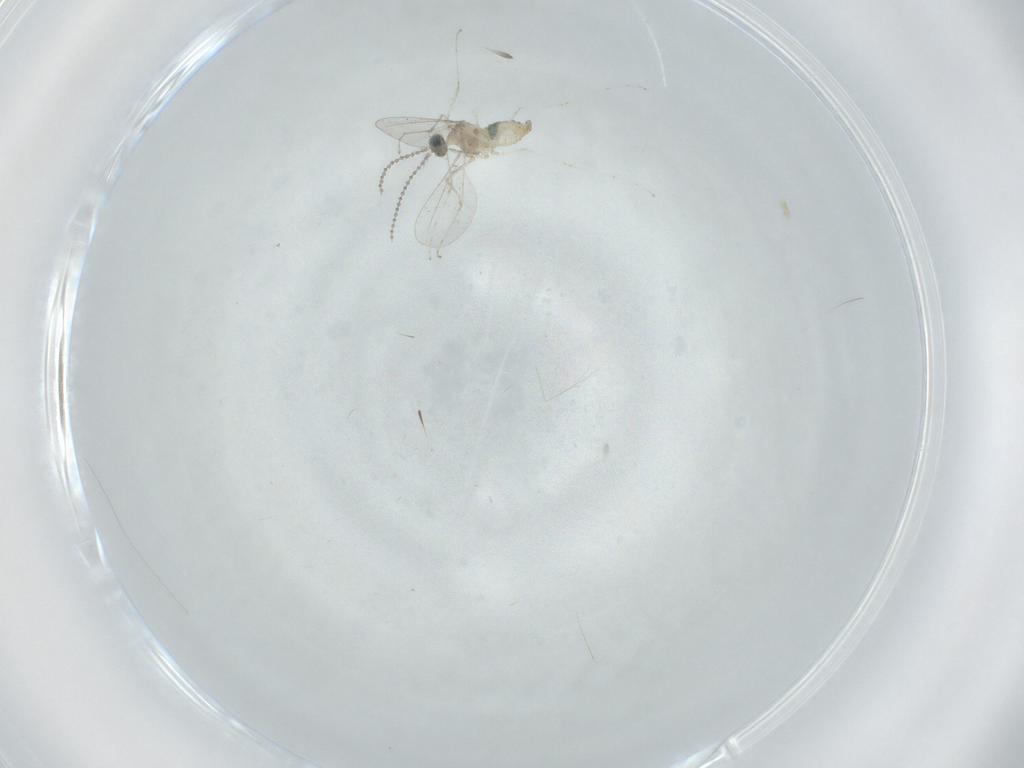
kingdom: Animalia
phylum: Arthropoda
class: Insecta
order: Diptera
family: Cecidomyiidae
